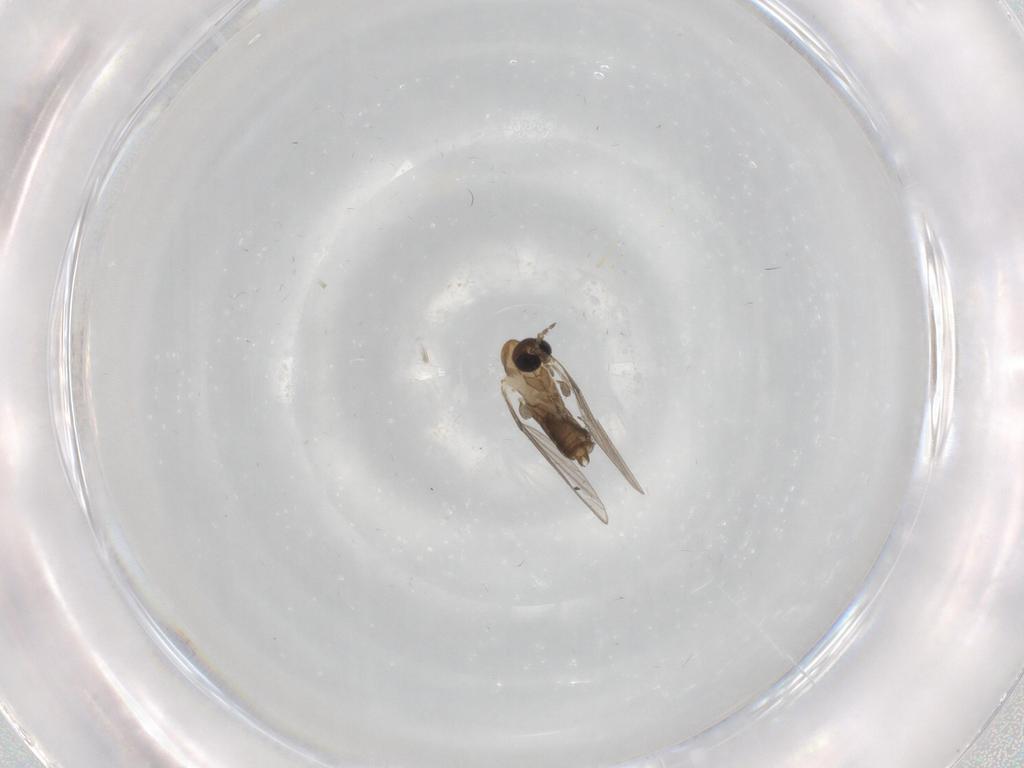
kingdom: Animalia
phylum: Arthropoda
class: Insecta
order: Diptera
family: Psychodidae
